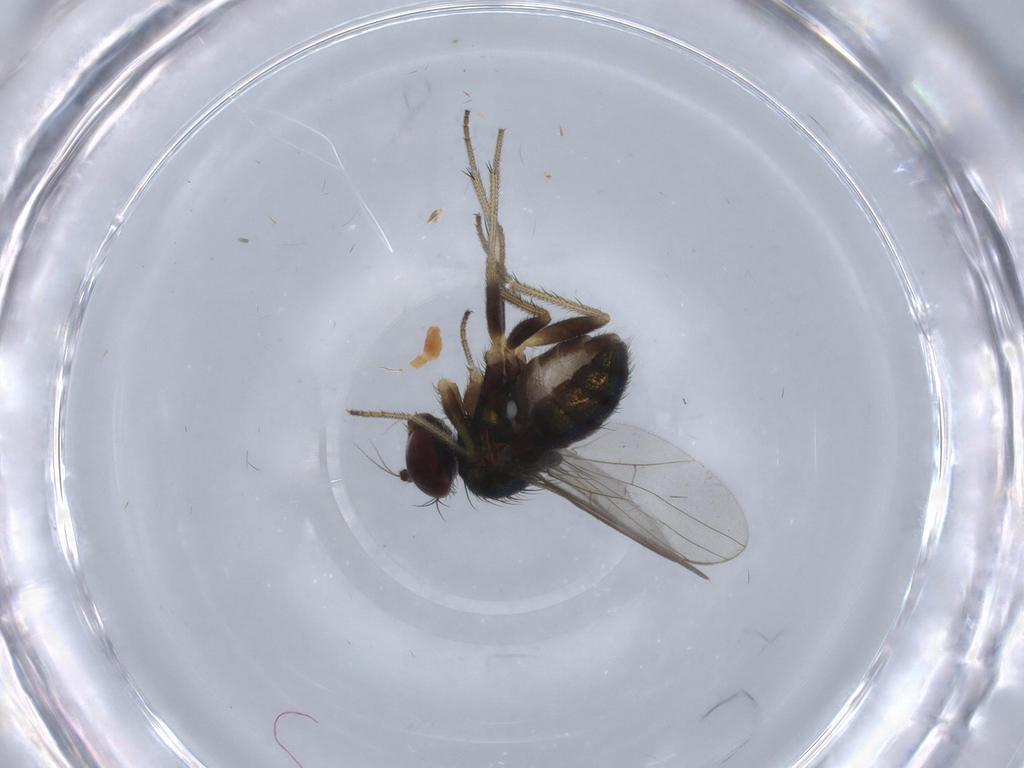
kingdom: Animalia
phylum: Arthropoda
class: Insecta
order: Diptera
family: Dolichopodidae
